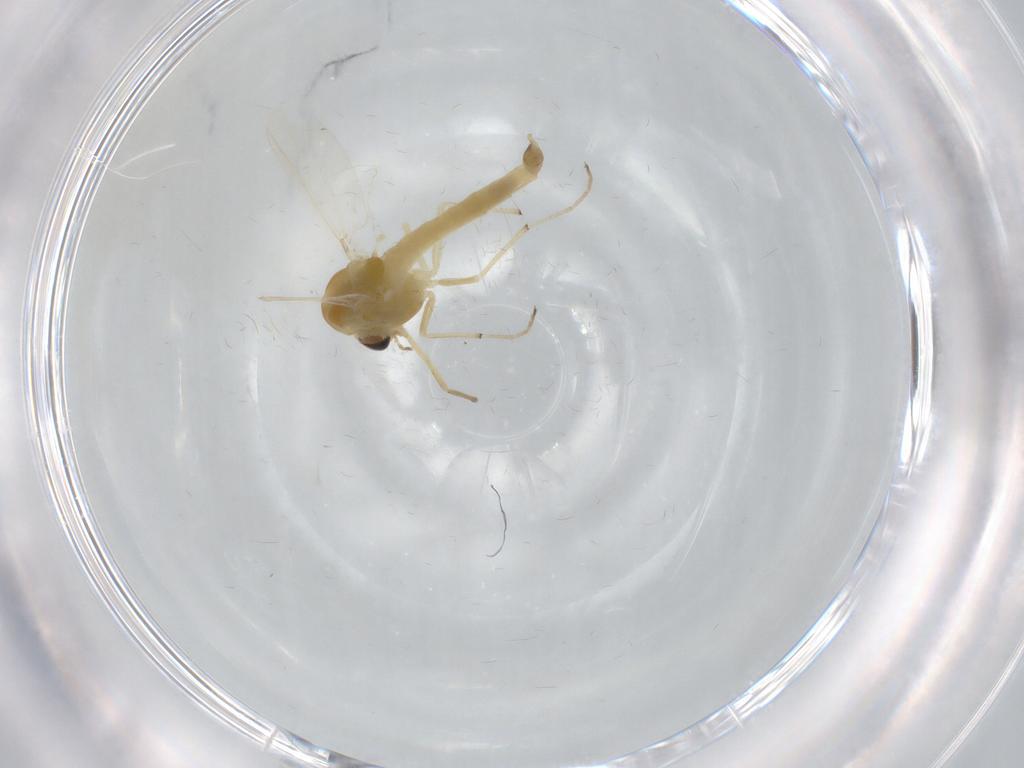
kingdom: Animalia
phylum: Arthropoda
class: Insecta
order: Diptera
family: Chironomidae
